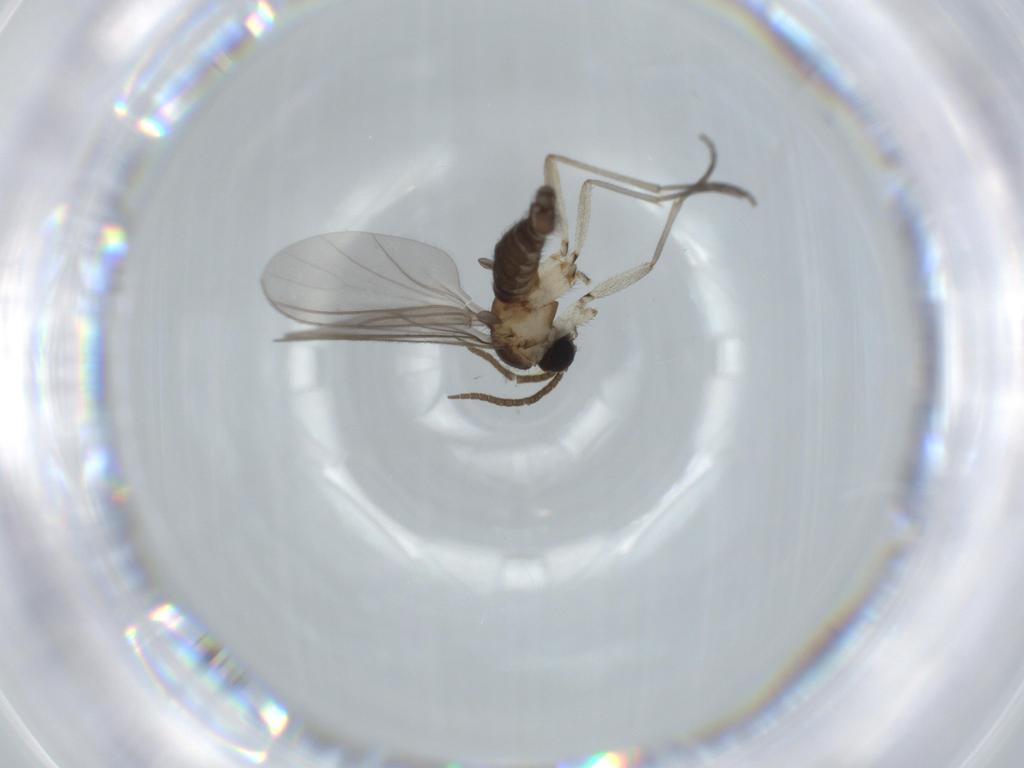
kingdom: Animalia
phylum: Arthropoda
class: Insecta
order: Diptera
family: Sciaridae
